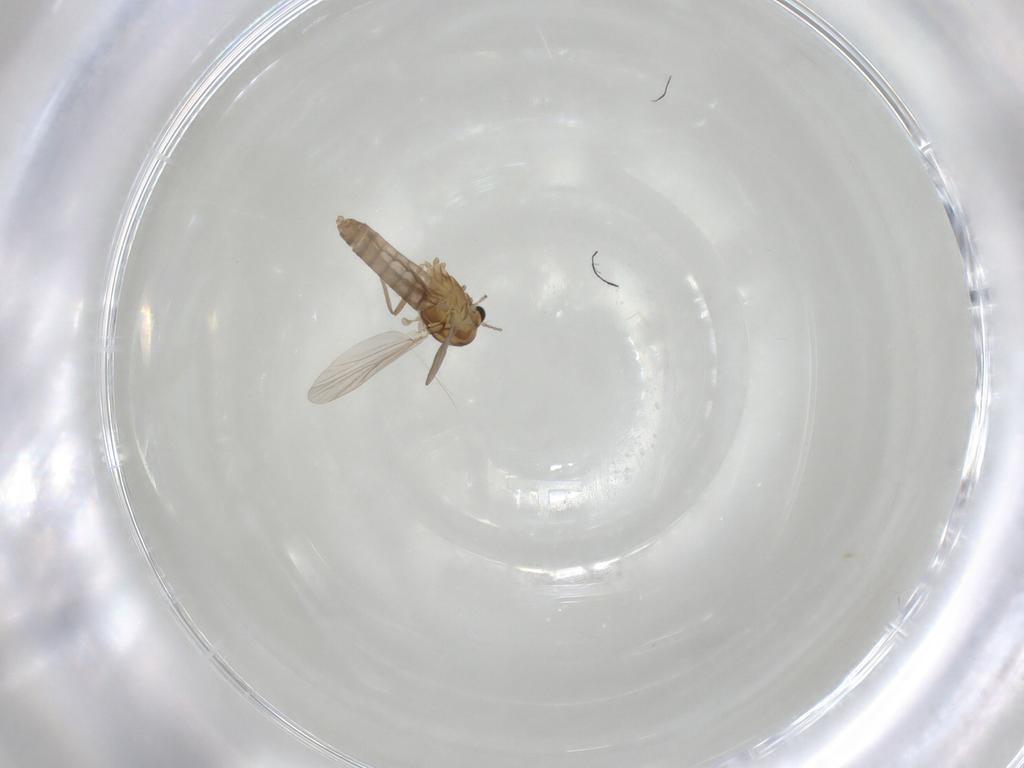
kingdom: Animalia
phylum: Arthropoda
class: Insecta
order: Diptera
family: Chironomidae
